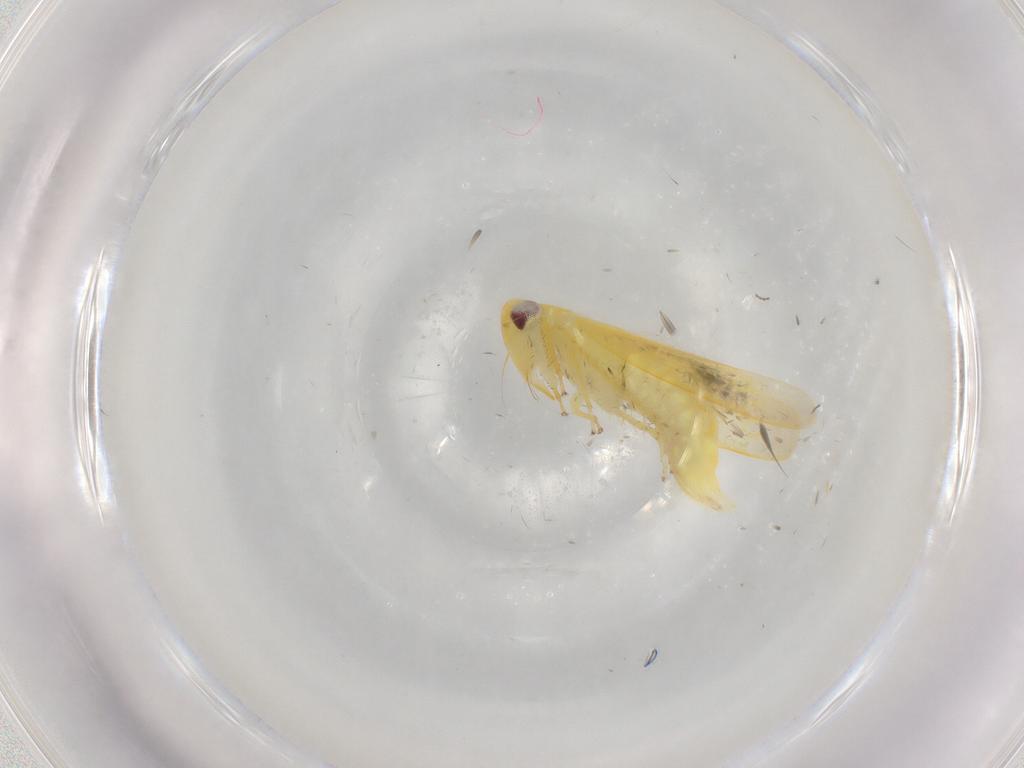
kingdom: Animalia
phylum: Arthropoda
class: Insecta
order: Hemiptera
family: Cicadellidae
